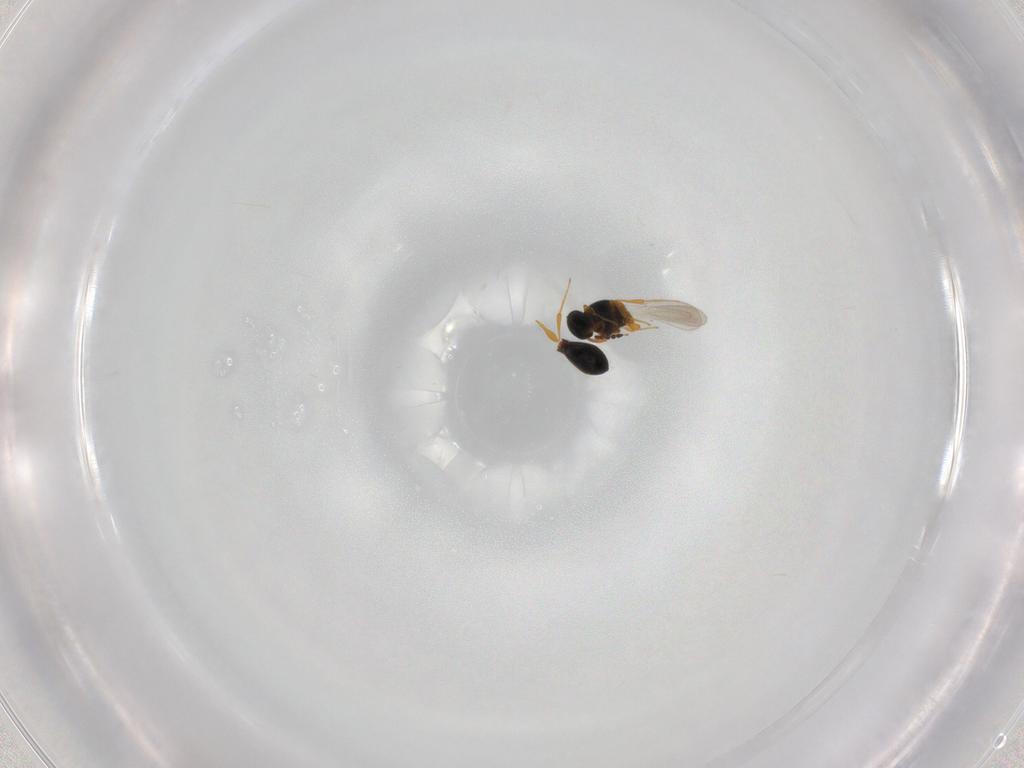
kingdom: Animalia
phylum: Arthropoda
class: Insecta
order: Hymenoptera
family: Platygastridae
